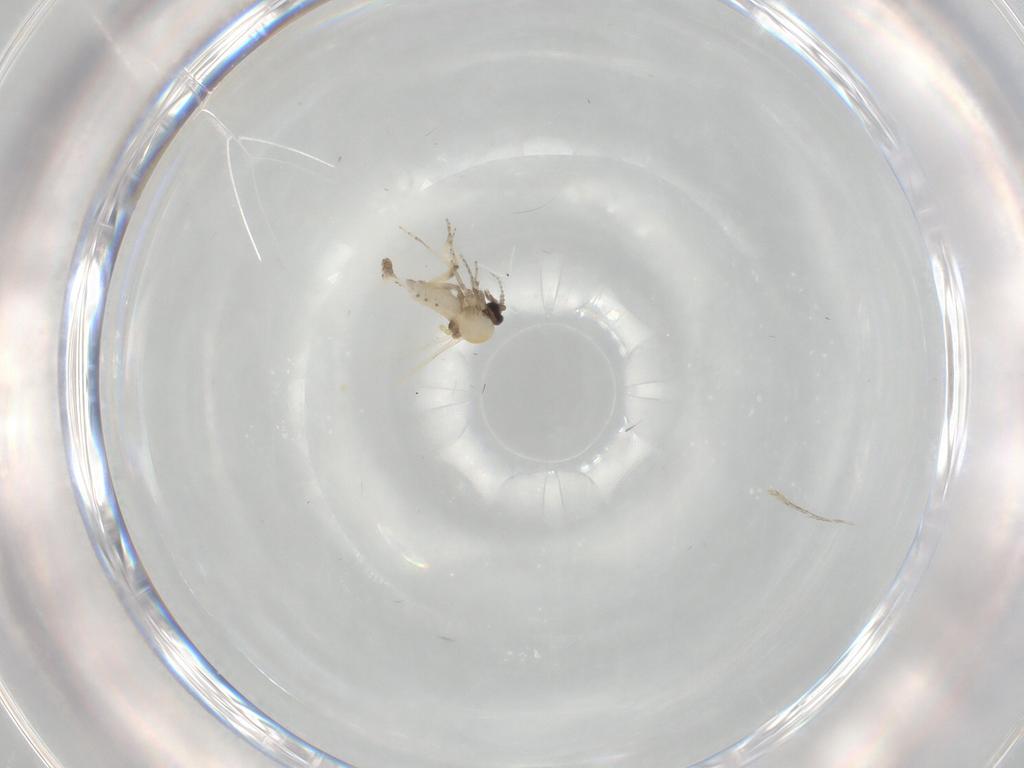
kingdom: Animalia
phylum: Arthropoda
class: Insecta
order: Diptera
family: Ceratopogonidae
